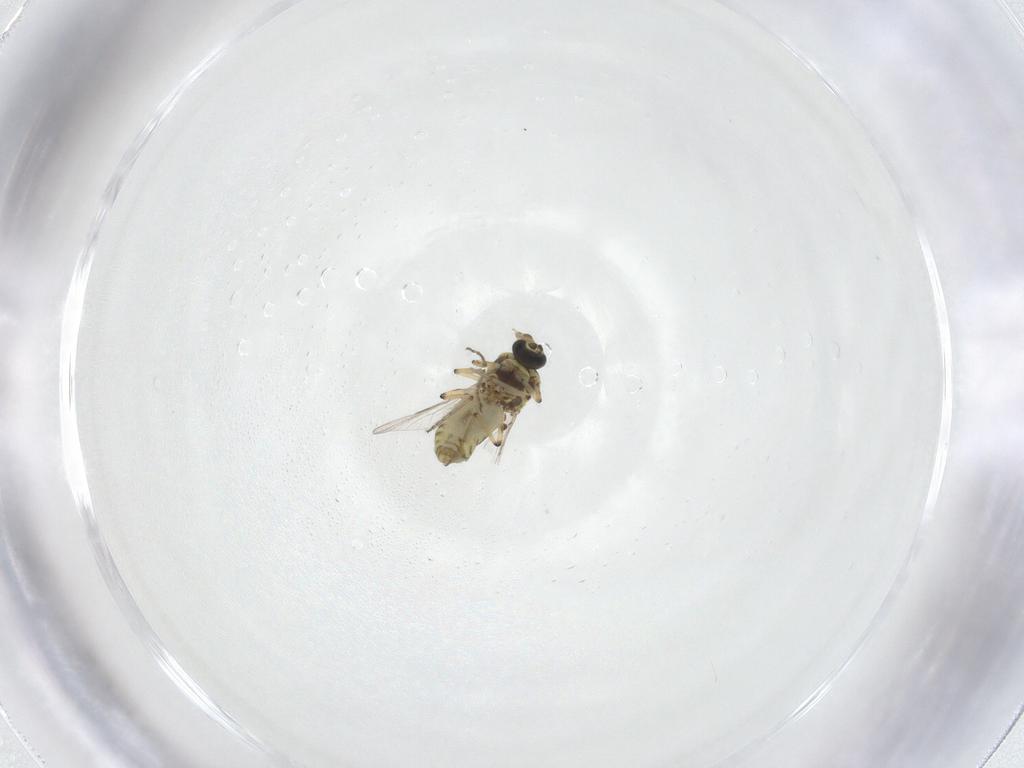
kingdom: Animalia
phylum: Arthropoda
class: Insecta
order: Diptera
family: Ceratopogonidae
